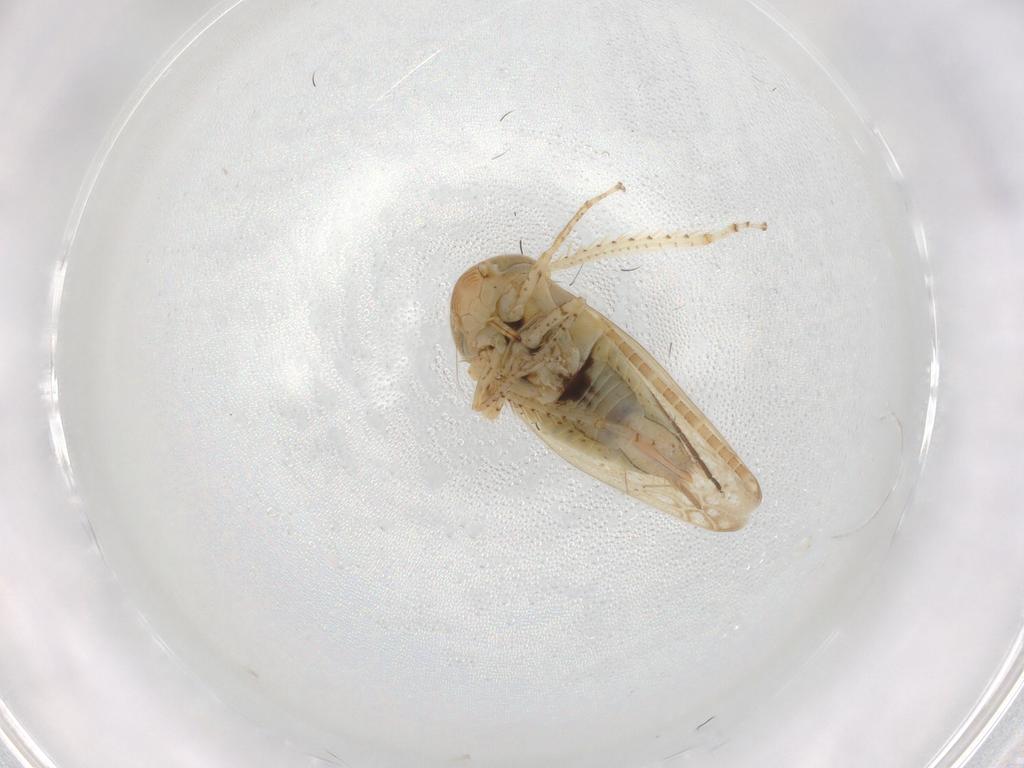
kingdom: Animalia
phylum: Arthropoda
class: Insecta
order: Hemiptera
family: Cicadellidae
